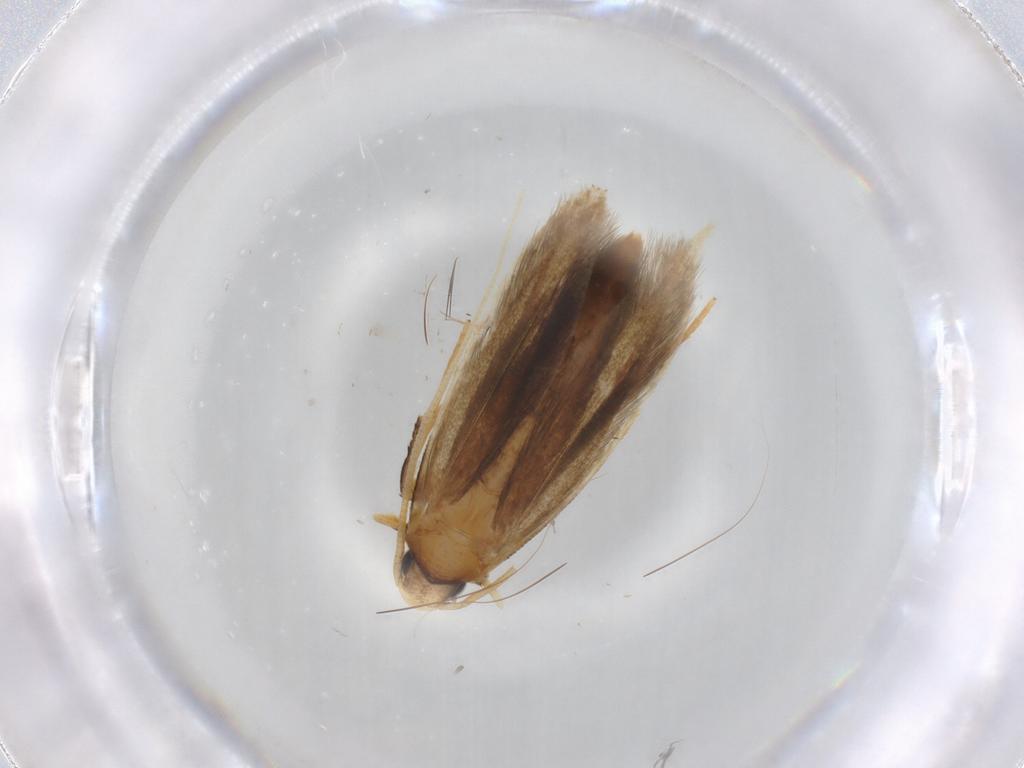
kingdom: Animalia
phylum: Arthropoda
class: Insecta
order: Lepidoptera
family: Tineidae
